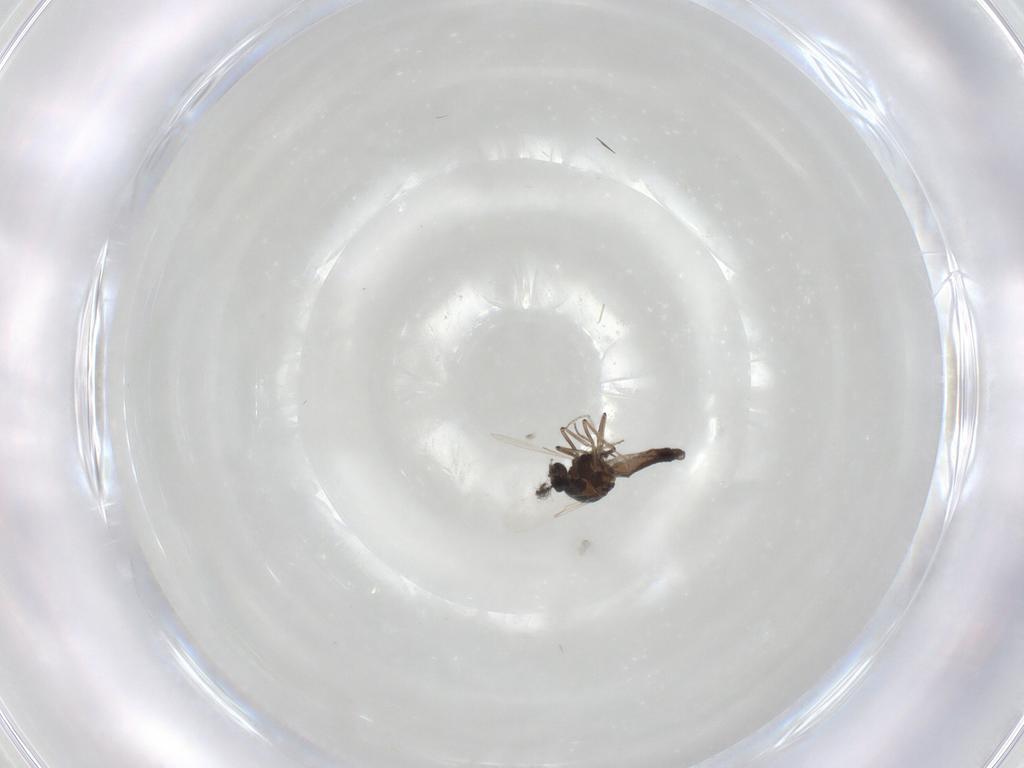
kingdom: Animalia
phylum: Arthropoda
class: Insecta
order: Diptera
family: Ceratopogonidae
